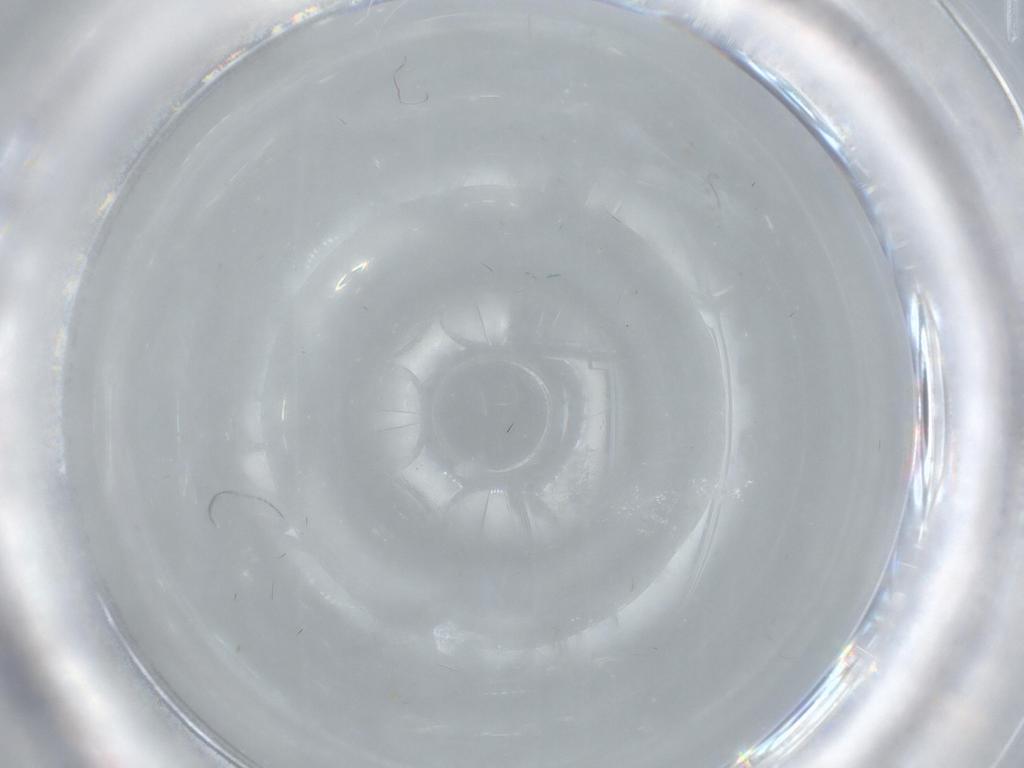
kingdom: Animalia
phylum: Arthropoda
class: Insecta
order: Hymenoptera
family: Signiphoridae
